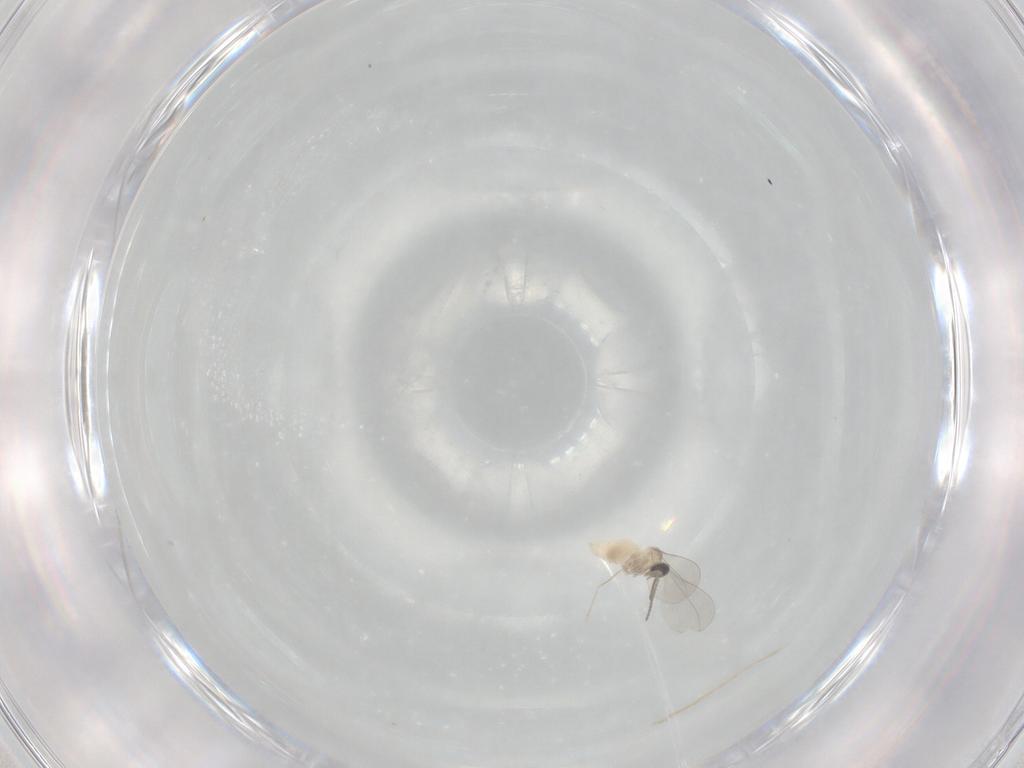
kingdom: Animalia
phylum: Arthropoda
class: Insecta
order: Diptera
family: Cecidomyiidae
